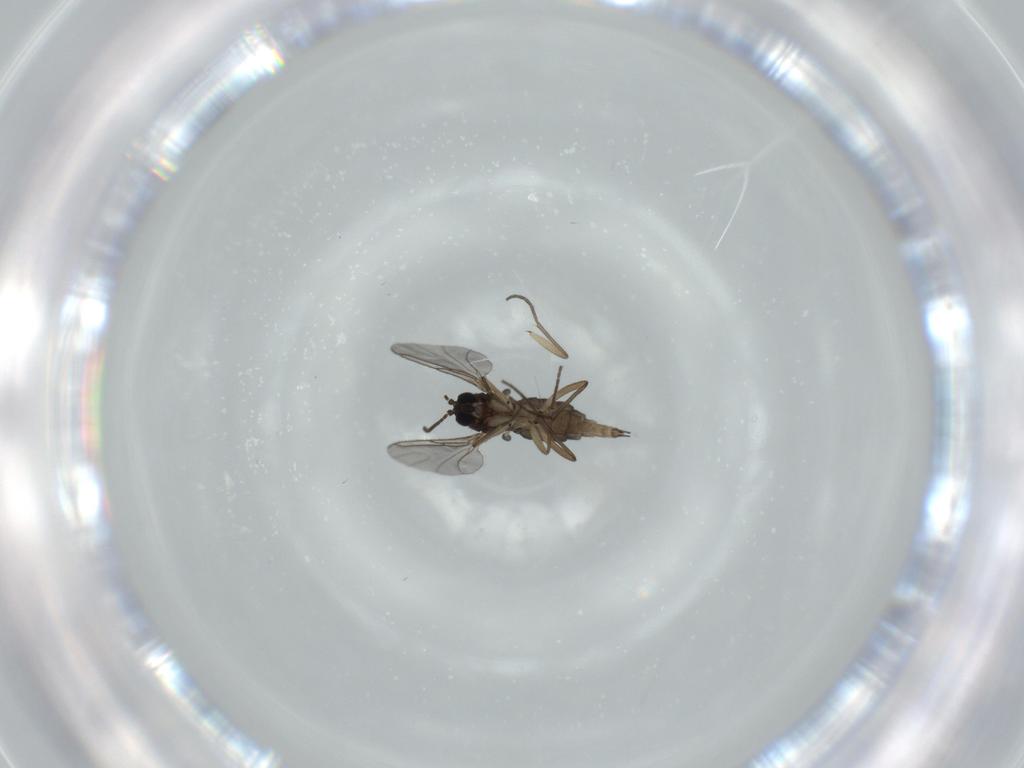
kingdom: Animalia
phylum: Arthropoda
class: Insecta
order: Diptera
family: Sciaridae
